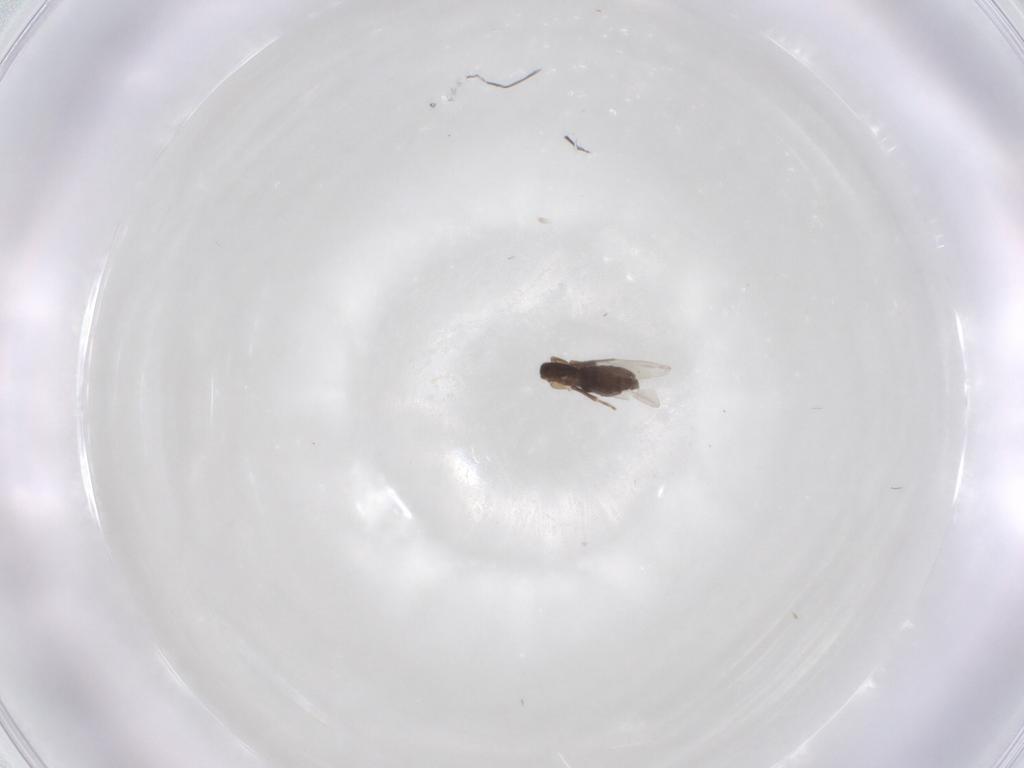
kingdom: Animalia
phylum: Arthropoda
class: Insecta
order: Diptera
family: Phoridae
